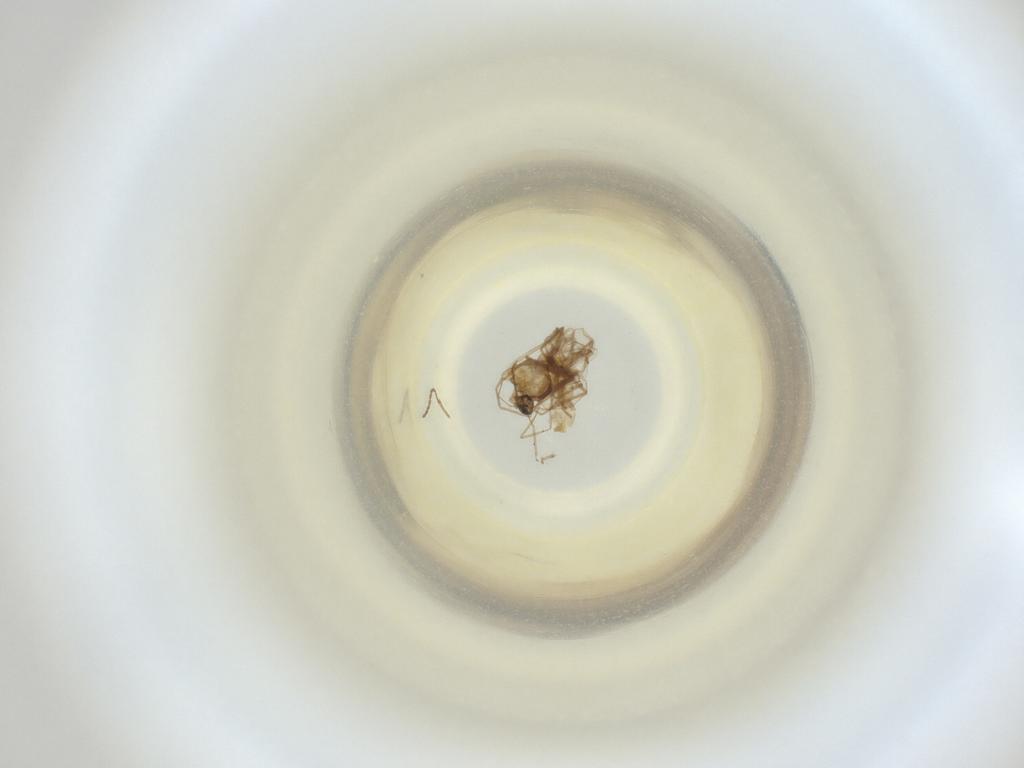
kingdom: Animalia
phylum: Arthropoda
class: Insecta
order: Diptera
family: Cecidomyiidae
